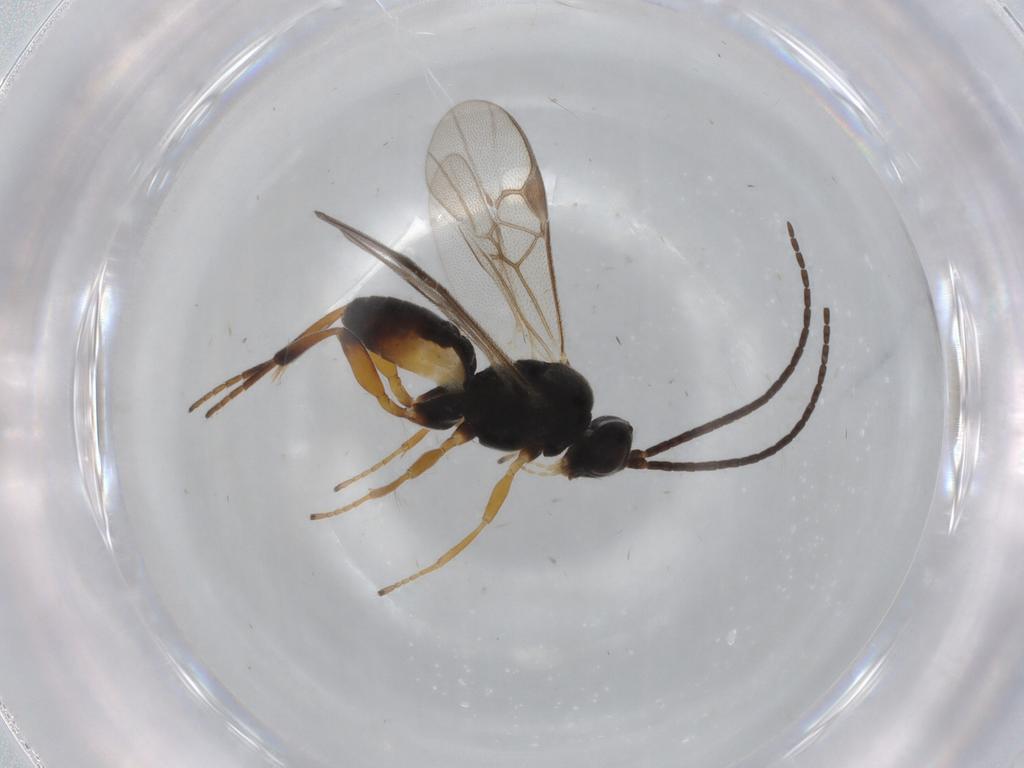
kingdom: Animalia
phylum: Arthropoda
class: Insecta
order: Hymenoptera
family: Braconidae
